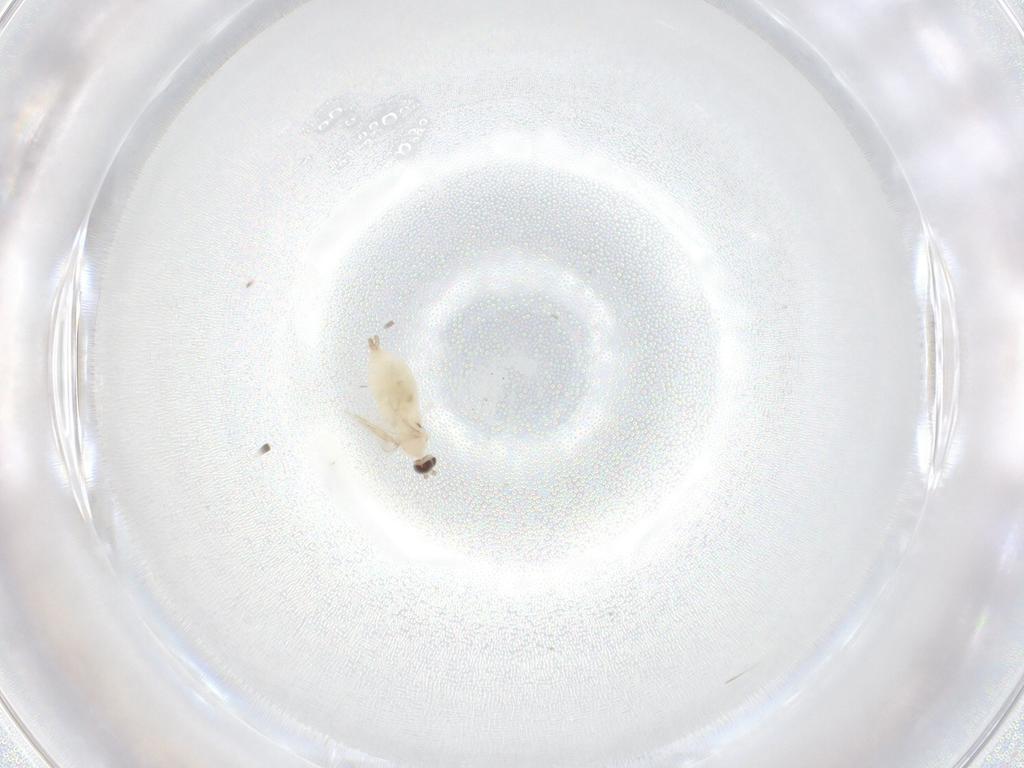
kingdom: Animalia
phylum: Arthropoda
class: Insecta
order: Diptera
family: Cecidomyiidae
